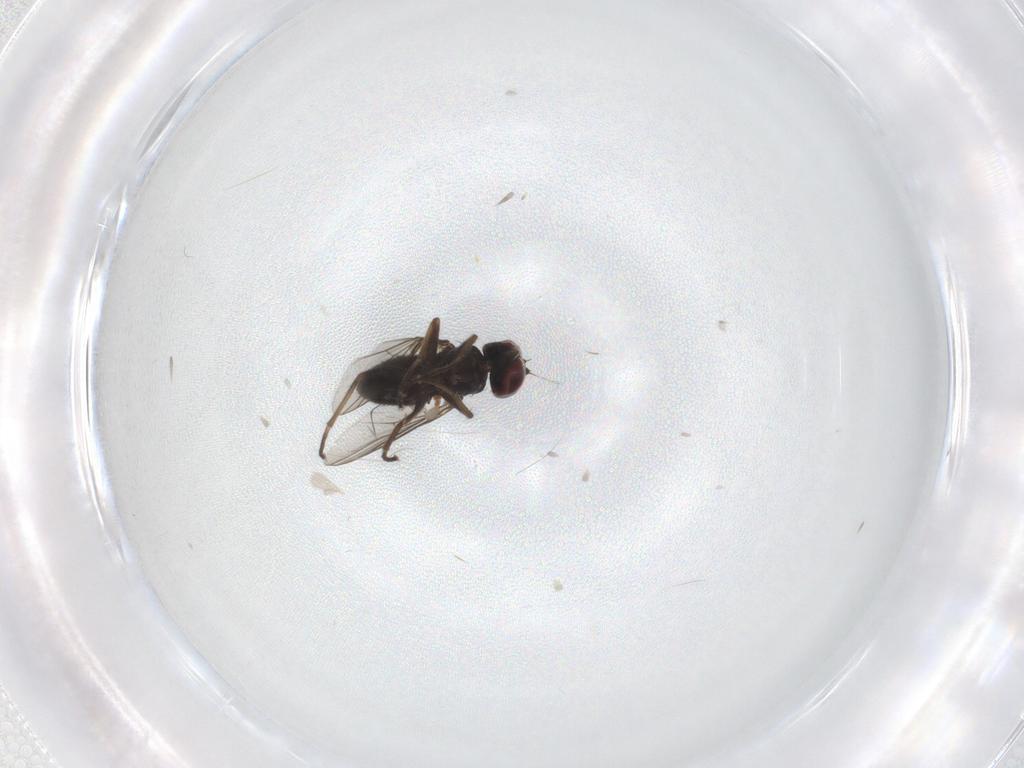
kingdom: Animalia
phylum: Arthropoda
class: Insecta
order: Diptera
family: Dolichopodidae
